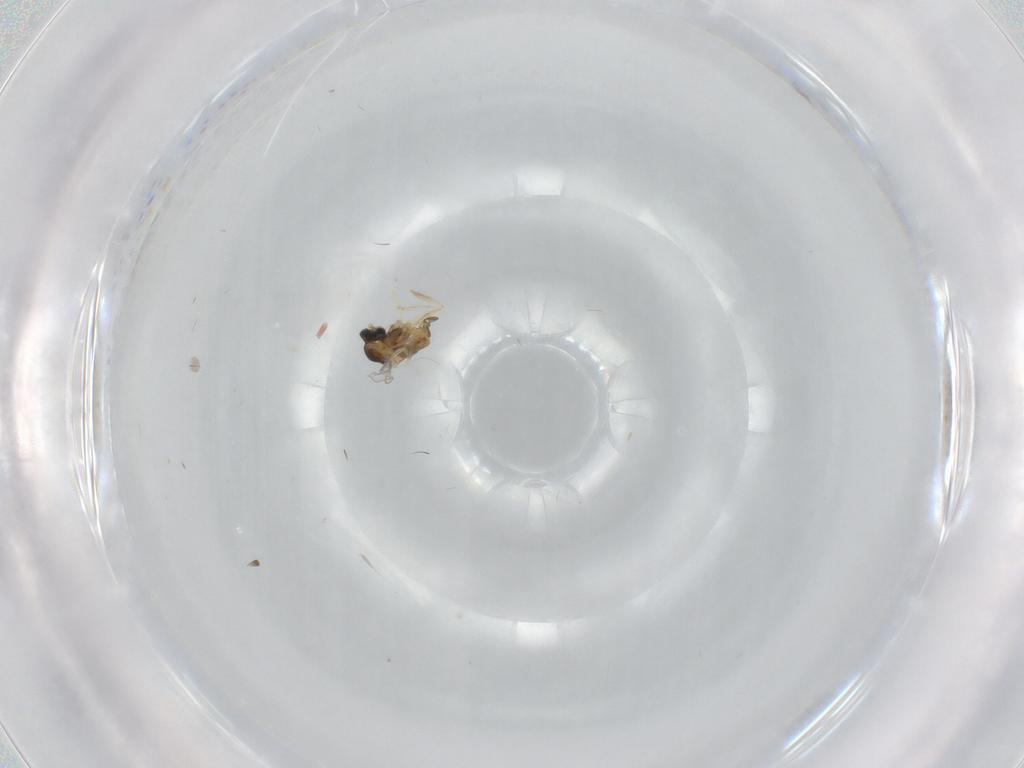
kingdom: Animalia
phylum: Arthropoda
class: Insecta
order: Diptera
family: Cecidomyiidae
